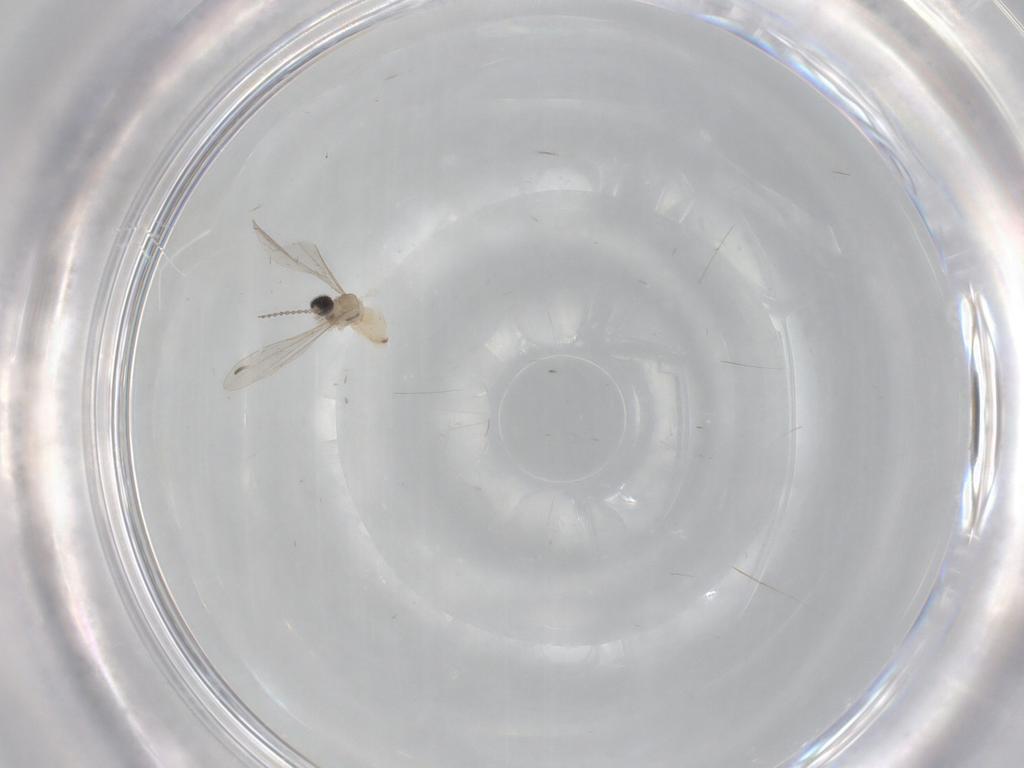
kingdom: Animalia
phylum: Arthropoda
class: Insecta
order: Diptera
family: Cecidomyiidae
